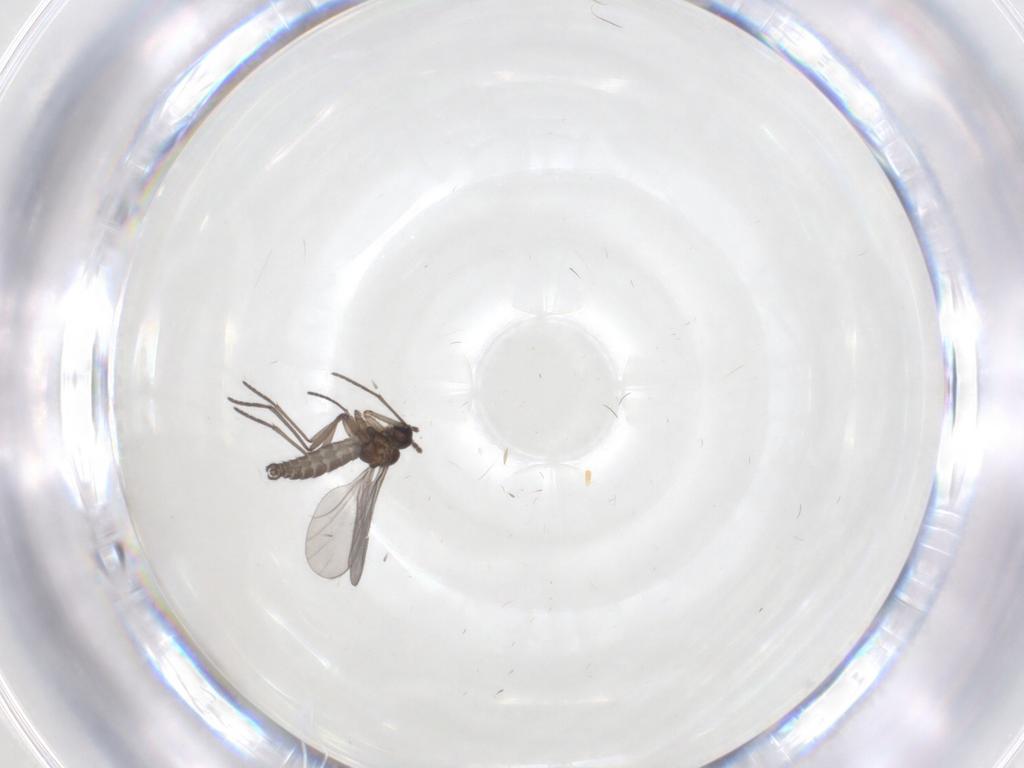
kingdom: Animalia
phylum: Arthropoda
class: Insecta
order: Diptera
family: Sciaridae
